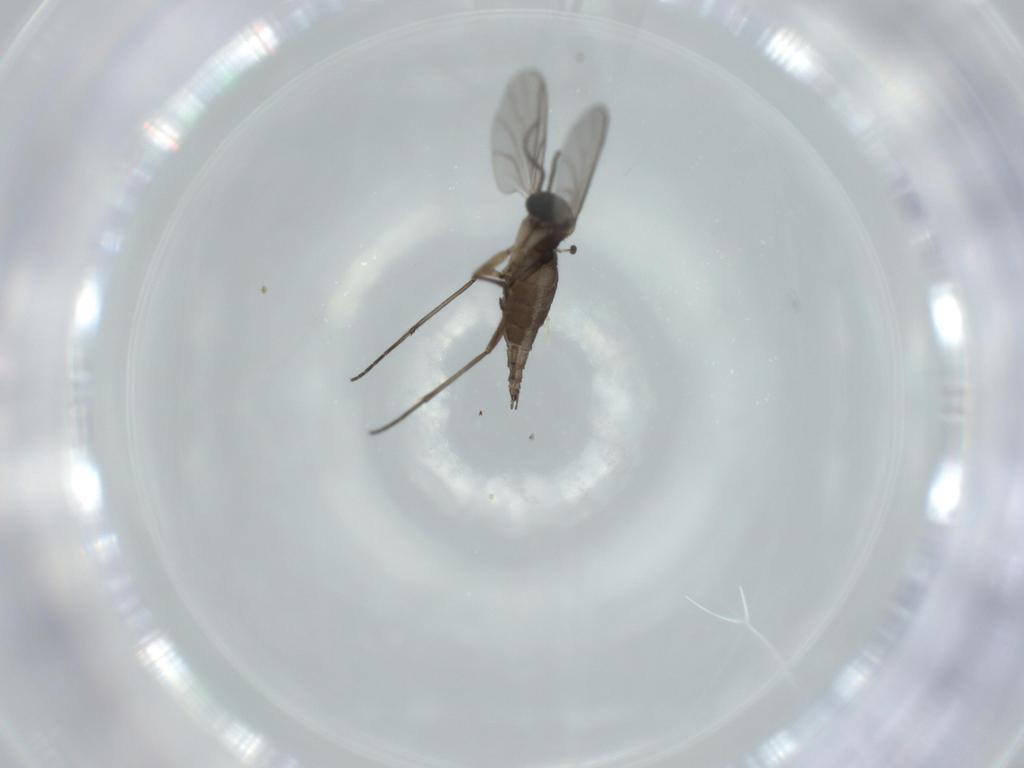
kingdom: Animalia
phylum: Arthropoda
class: Insecta
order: Diptera
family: Sciaridae
